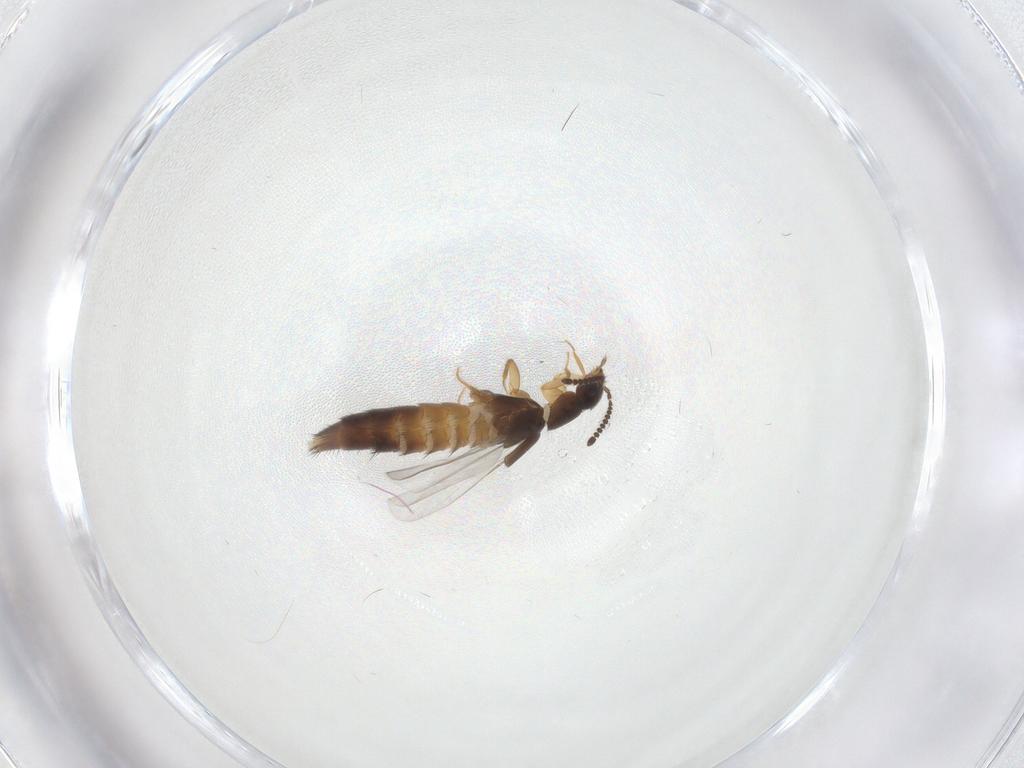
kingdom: Animalia
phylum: Arthropoda
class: Insecta
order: Coleoptera
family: Staphylinidae
